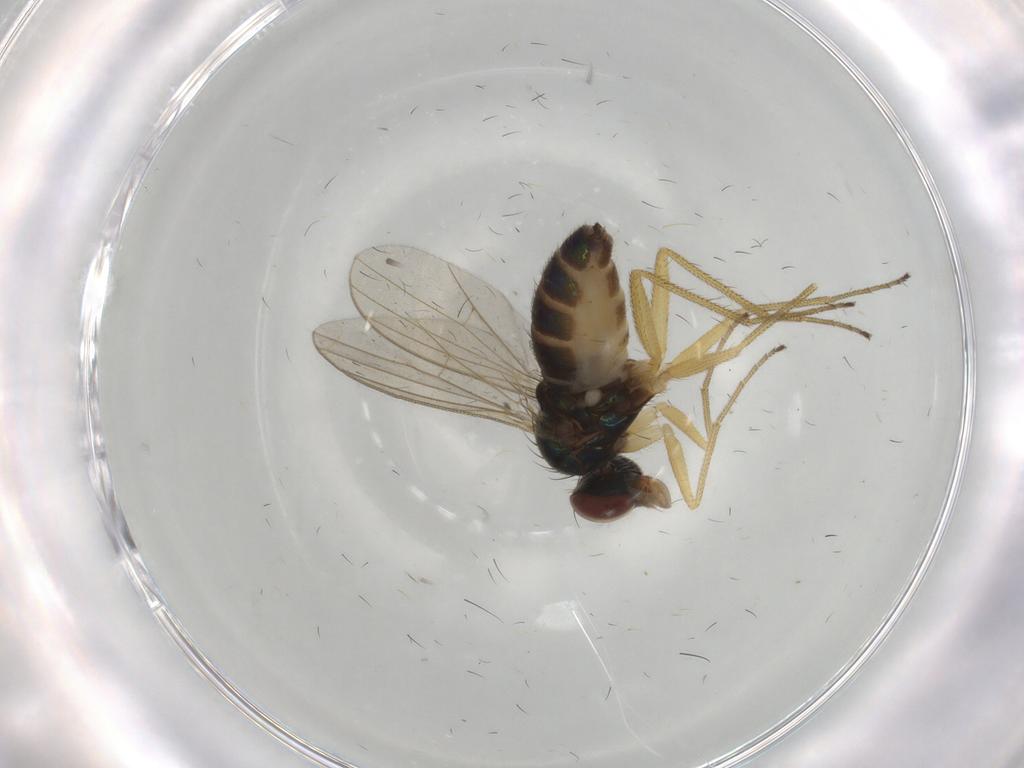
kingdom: Animalia
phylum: Arthropoda
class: Insecta
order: Diptera
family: Dolichopodidae
